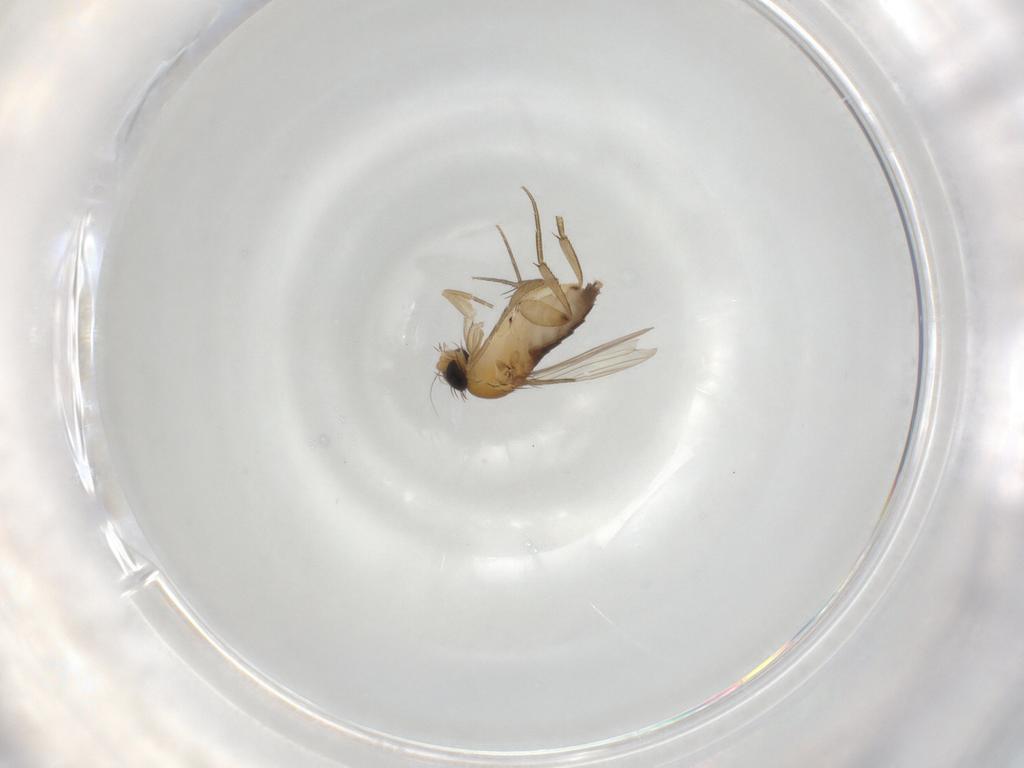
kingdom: Animalia
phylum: Arthropoda
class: Insecta
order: Diptera
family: Phoridae
